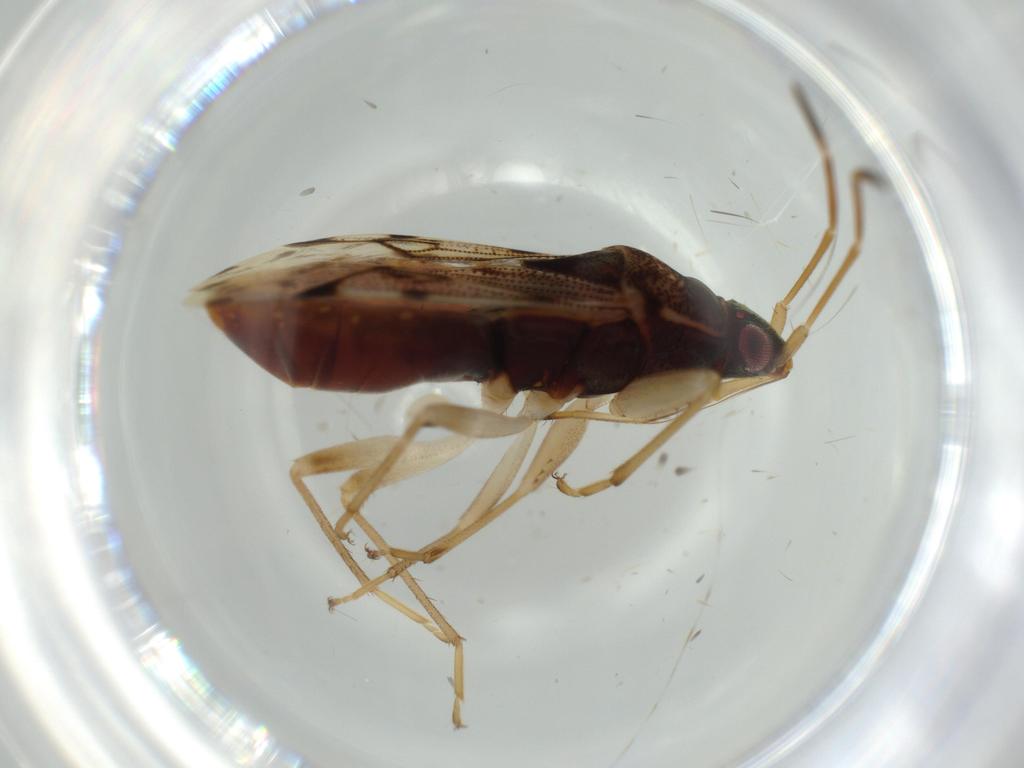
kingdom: Animalia
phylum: Arthropoda
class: Insecta
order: Hemiptera
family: Rhyparochromidae
